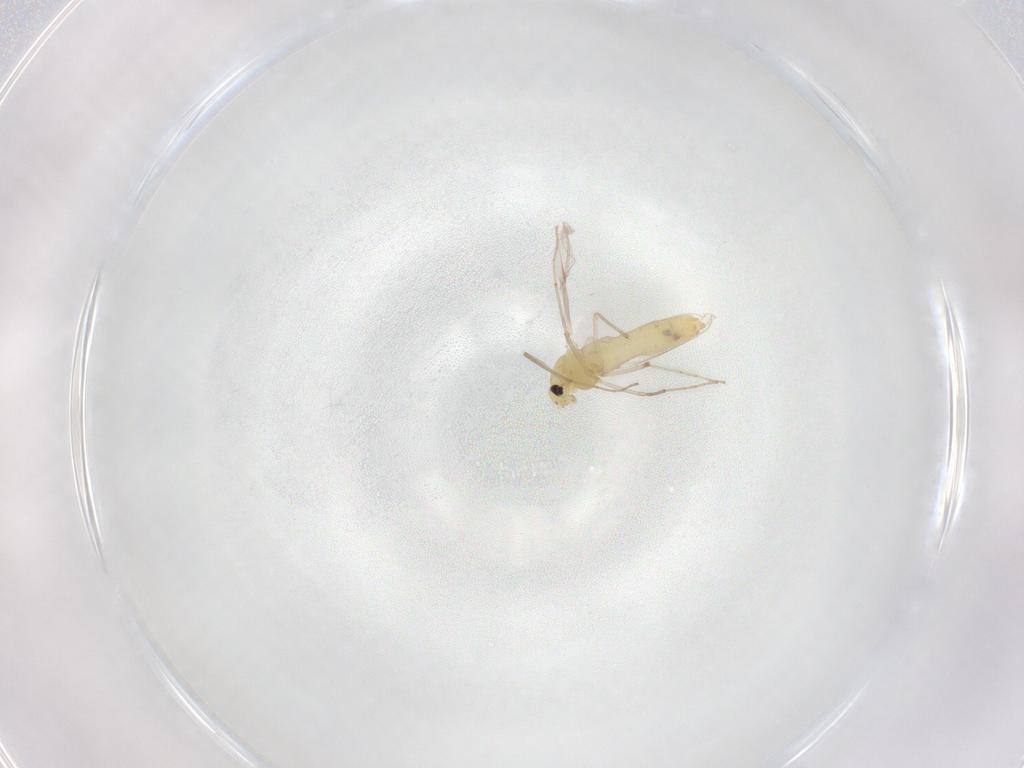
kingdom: Animalia
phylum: Arthropoda
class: Insecta
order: Diptera
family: Chironomidae
